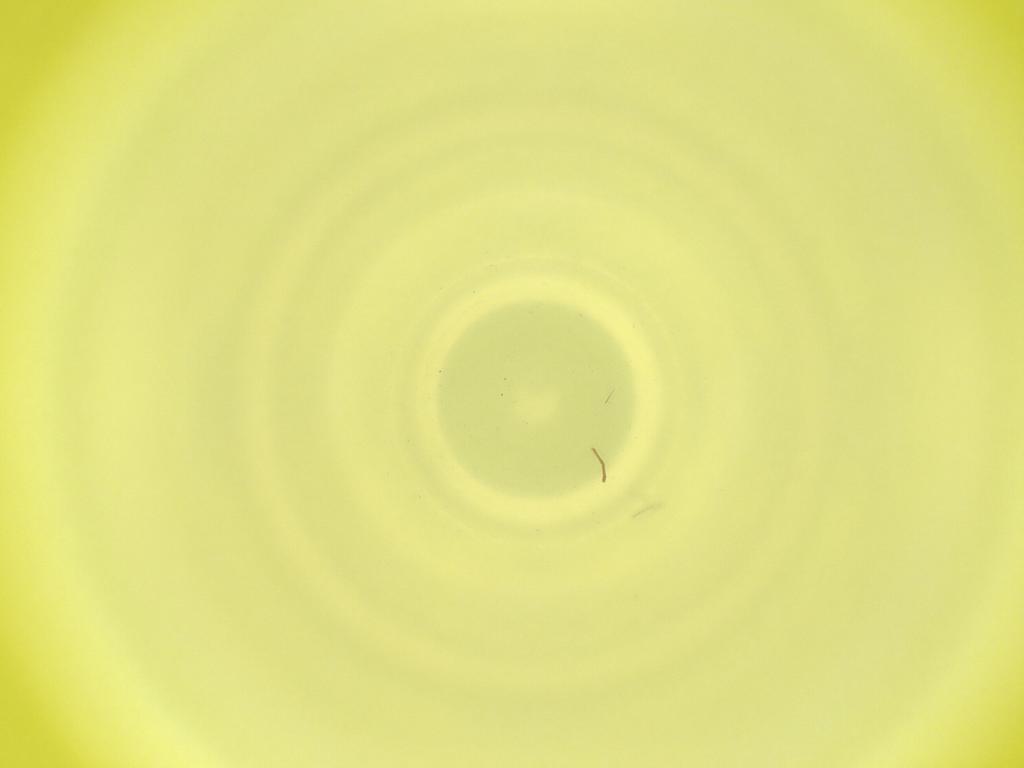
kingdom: Animalia
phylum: Arthropoda
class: Insecta
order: Diptera
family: Cecidomyiidae
